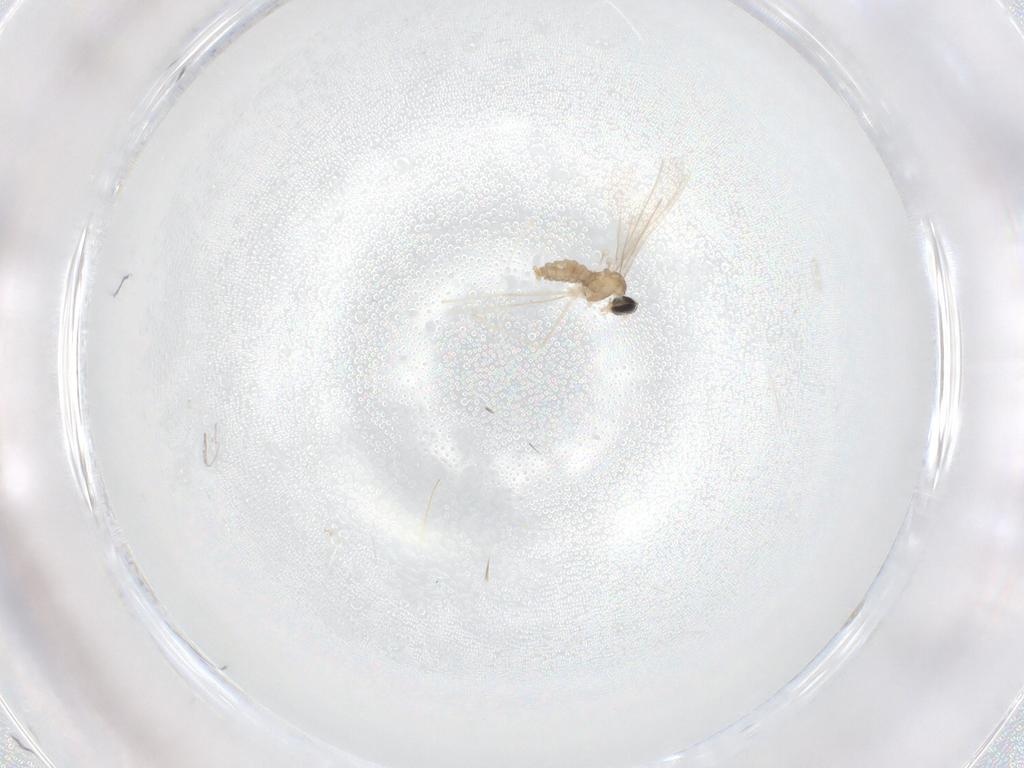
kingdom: Animalia
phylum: Arthropoda
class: Insecta
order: Diptera
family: Cecidomyiidae
